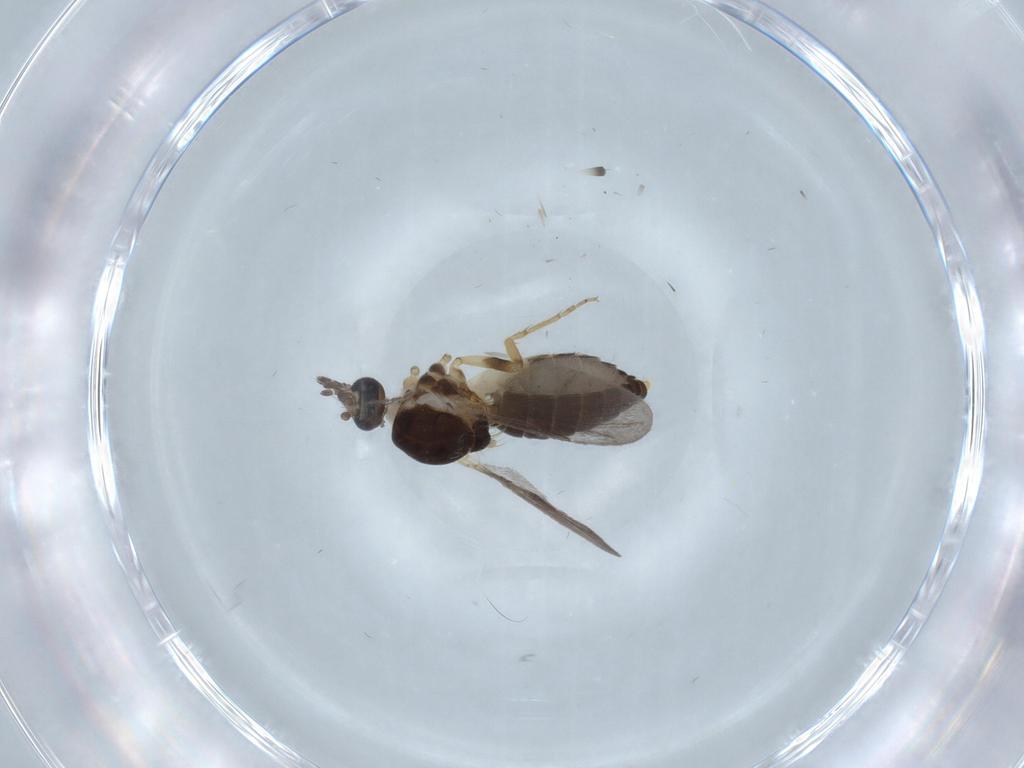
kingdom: Animalia
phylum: Arthropoda
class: Insecta
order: Diptera
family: Ceratopogonidae
